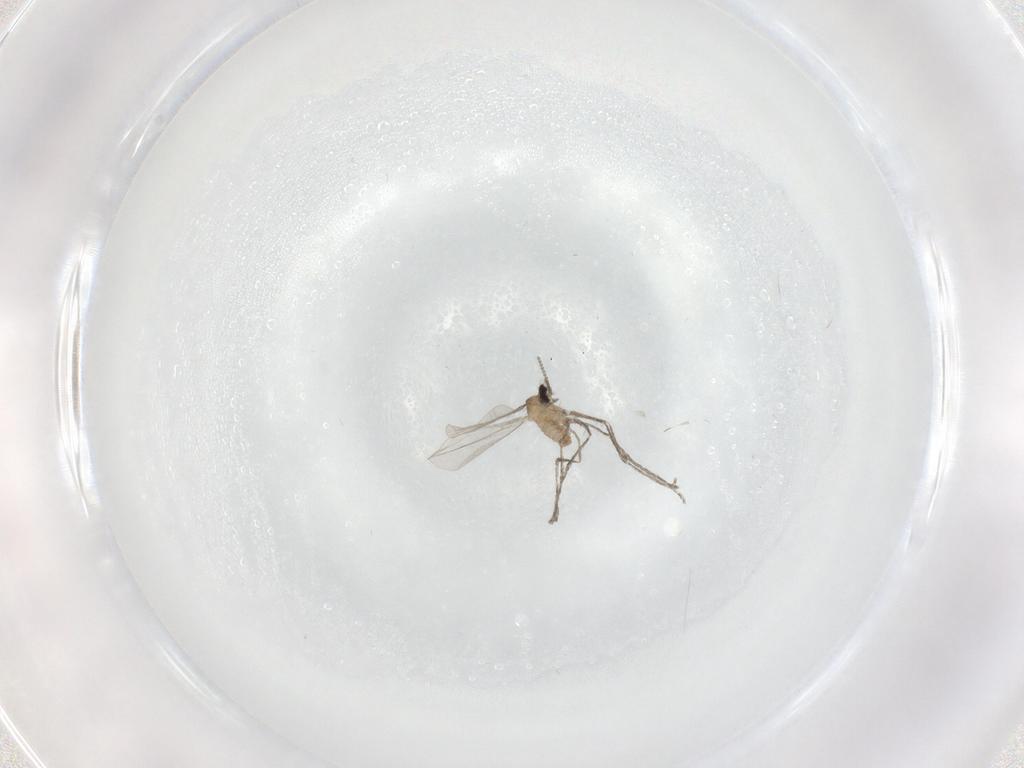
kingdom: Animalia
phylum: Arthropoda
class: Insecta
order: Diptera
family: Cecidomyiidae
